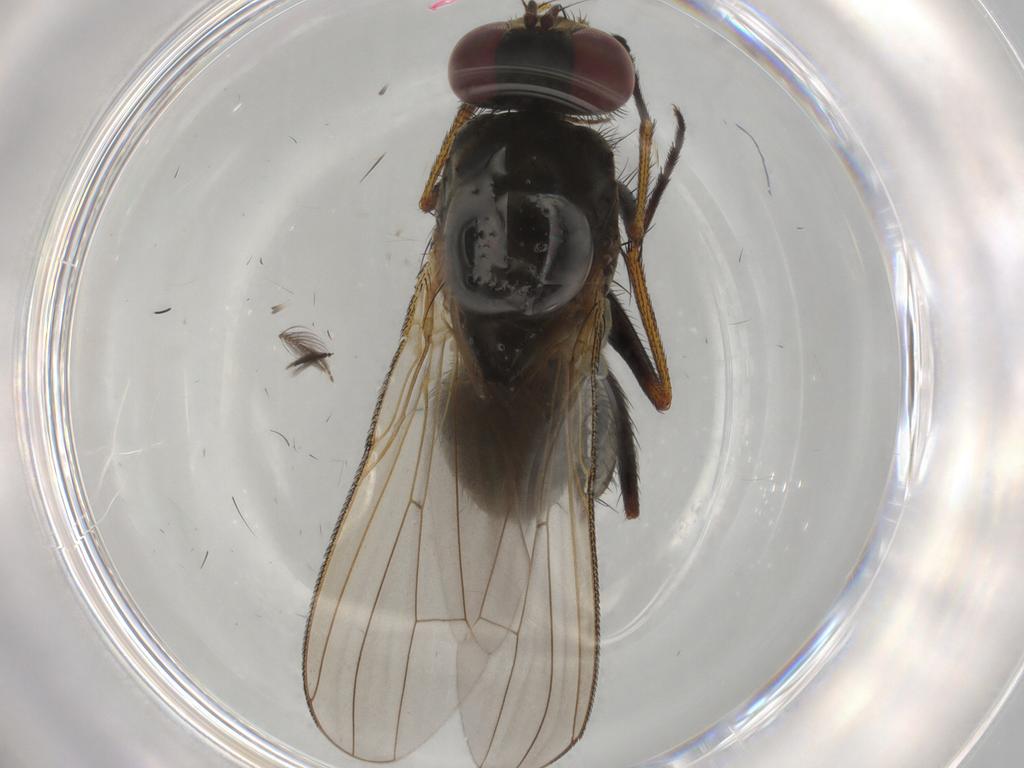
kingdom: Animalia
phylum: Arthropoda
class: Insecta
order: Diptera
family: Muscidae
